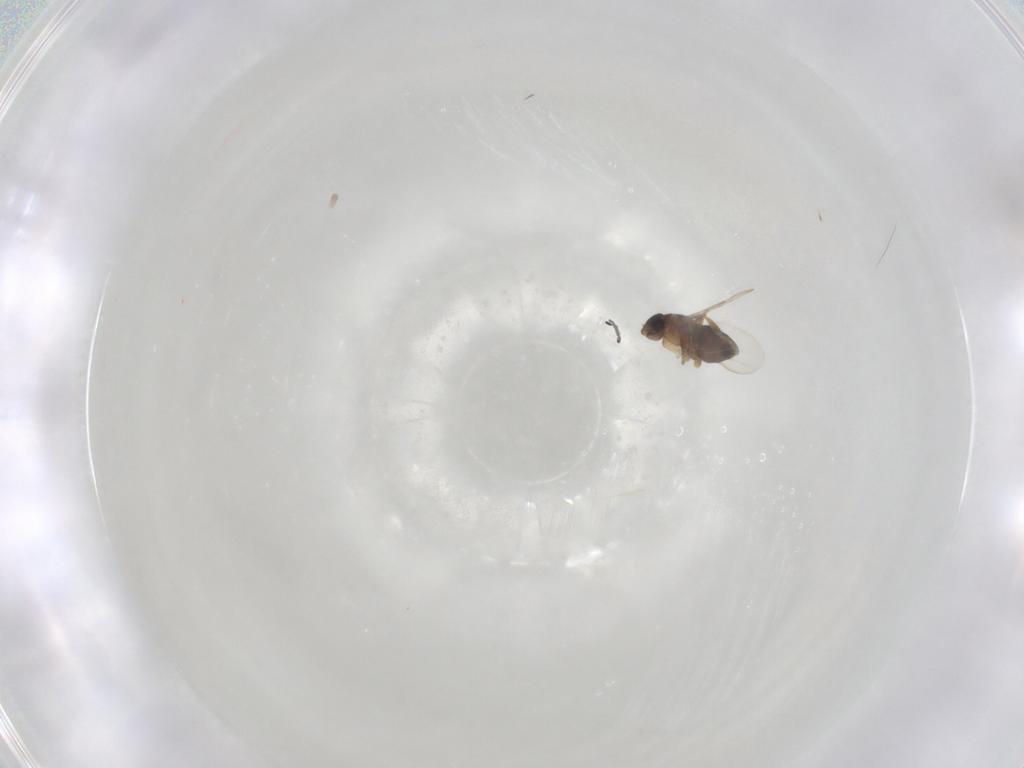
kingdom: Animalia
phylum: Arthropoda
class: Insecta
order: Diptera
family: Phoridae
